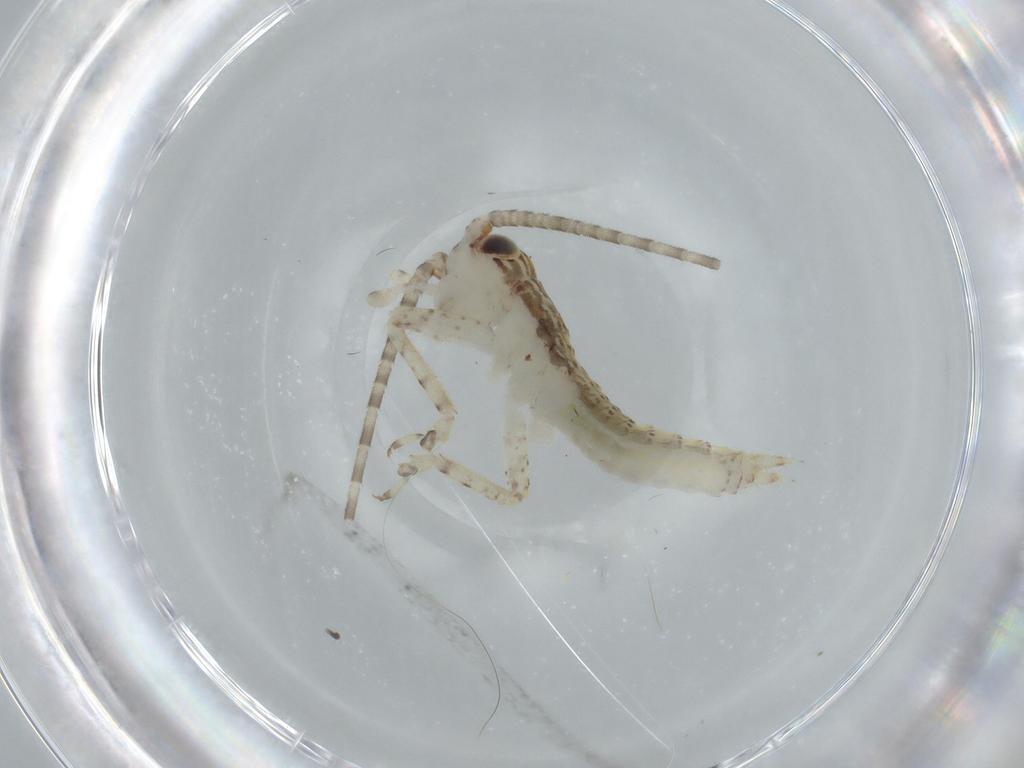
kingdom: Animalia
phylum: Arthropoda
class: Insecta
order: Orthoptera
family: Gryllidae
